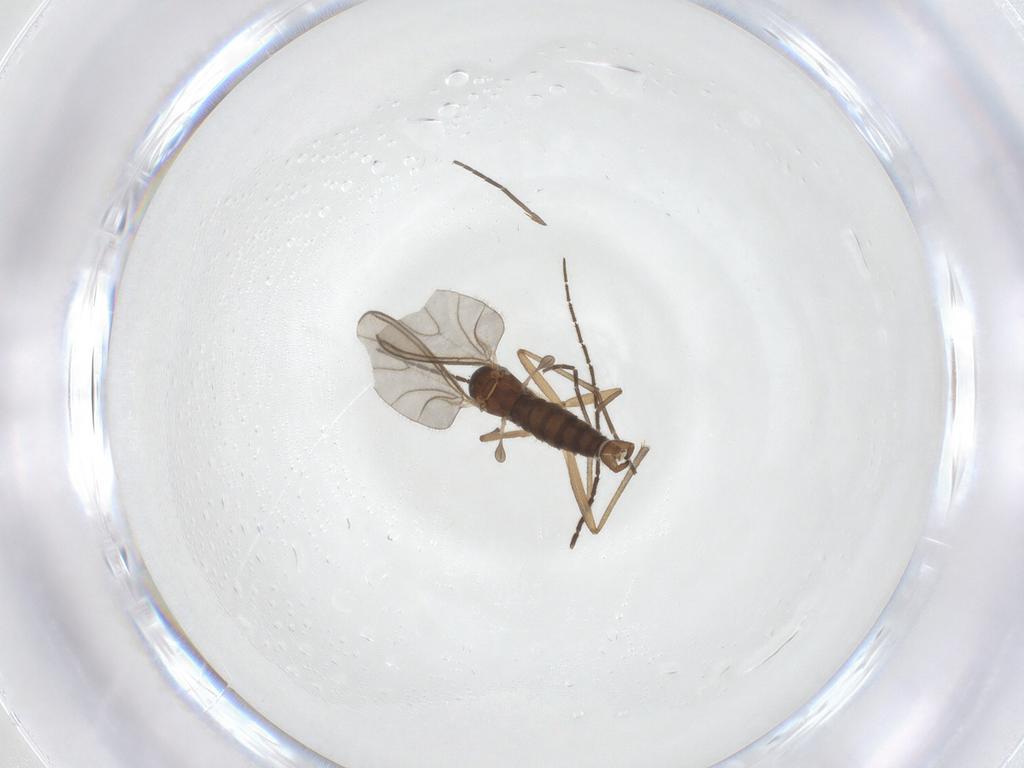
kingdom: Animalia
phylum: Arthropoda
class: Insecta
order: Diptera
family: Sciaridae
